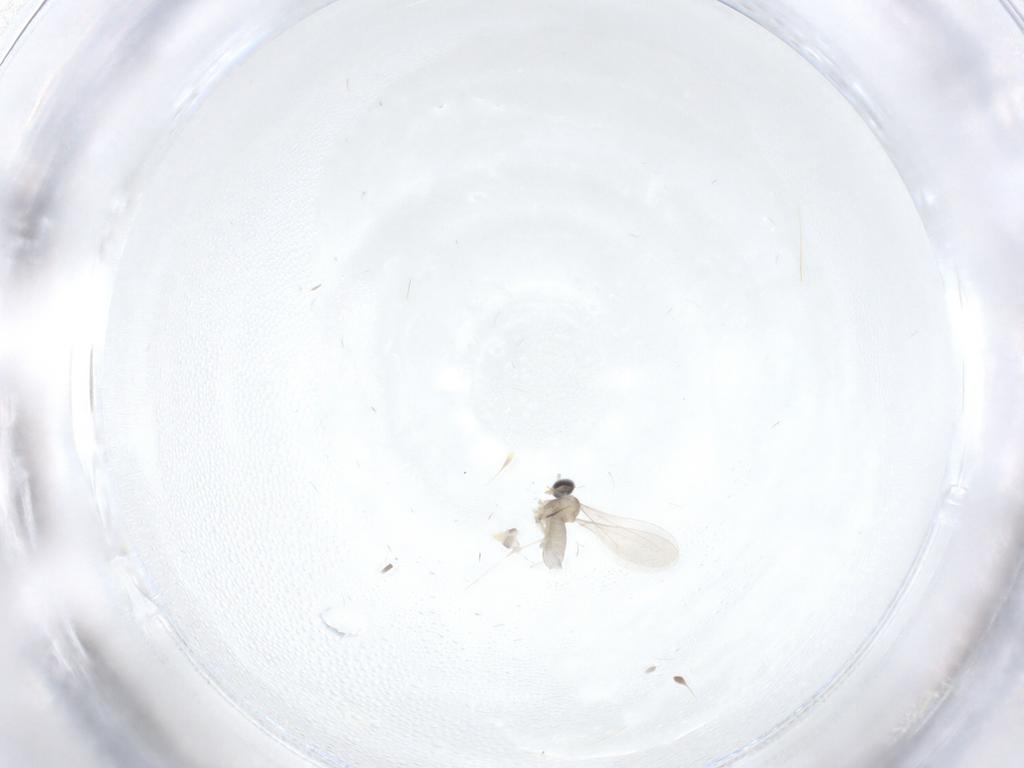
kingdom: Animalia
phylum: Arthropoda
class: Insecta
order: Diptera
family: Cecidomyiidae
